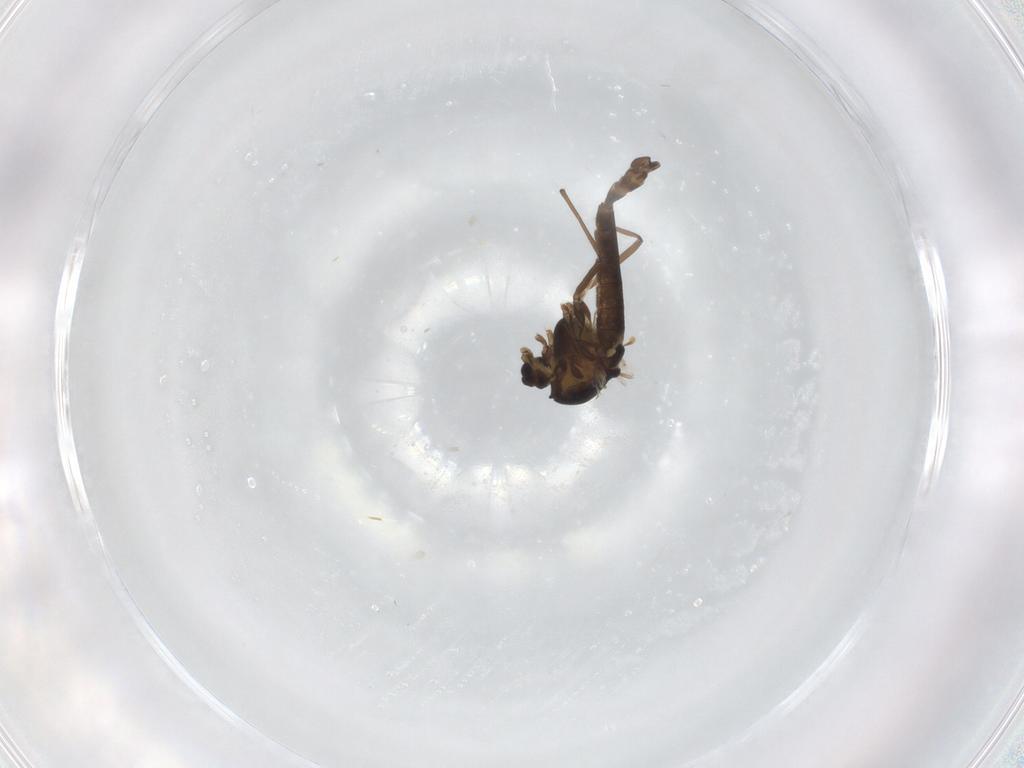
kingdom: Animalia
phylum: Arthropoda
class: Insecta
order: Diptera
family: Chironomidae
